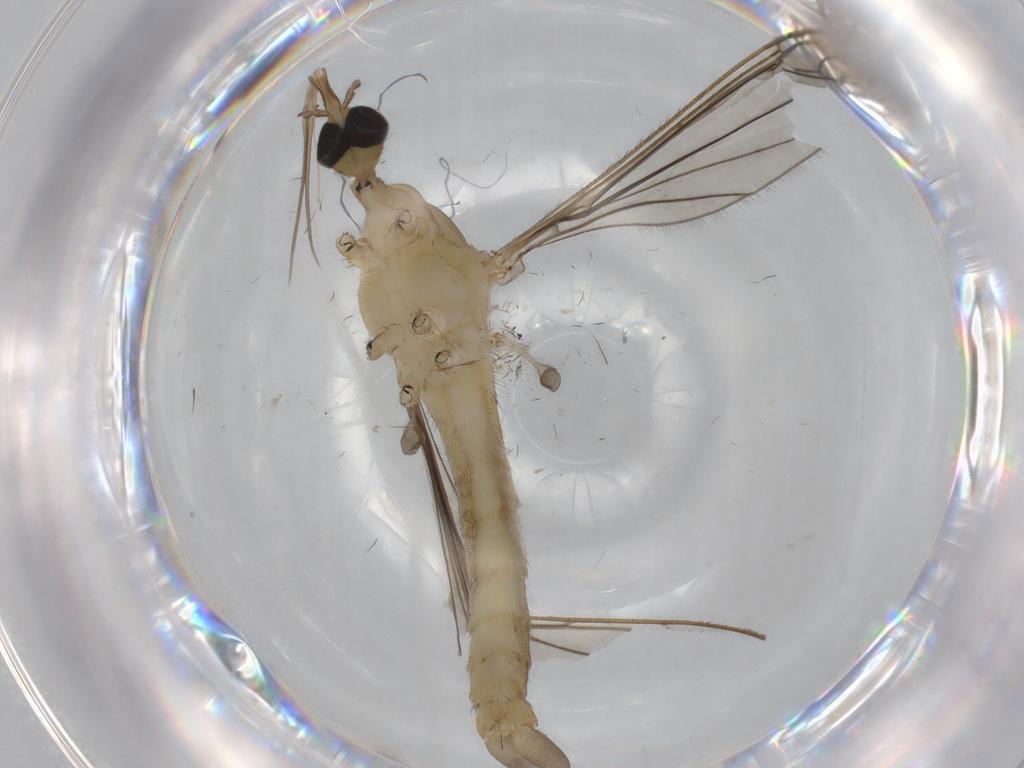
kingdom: Animalia
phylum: Arthropoda
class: Insecta
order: Diptera
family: Limoniidae
